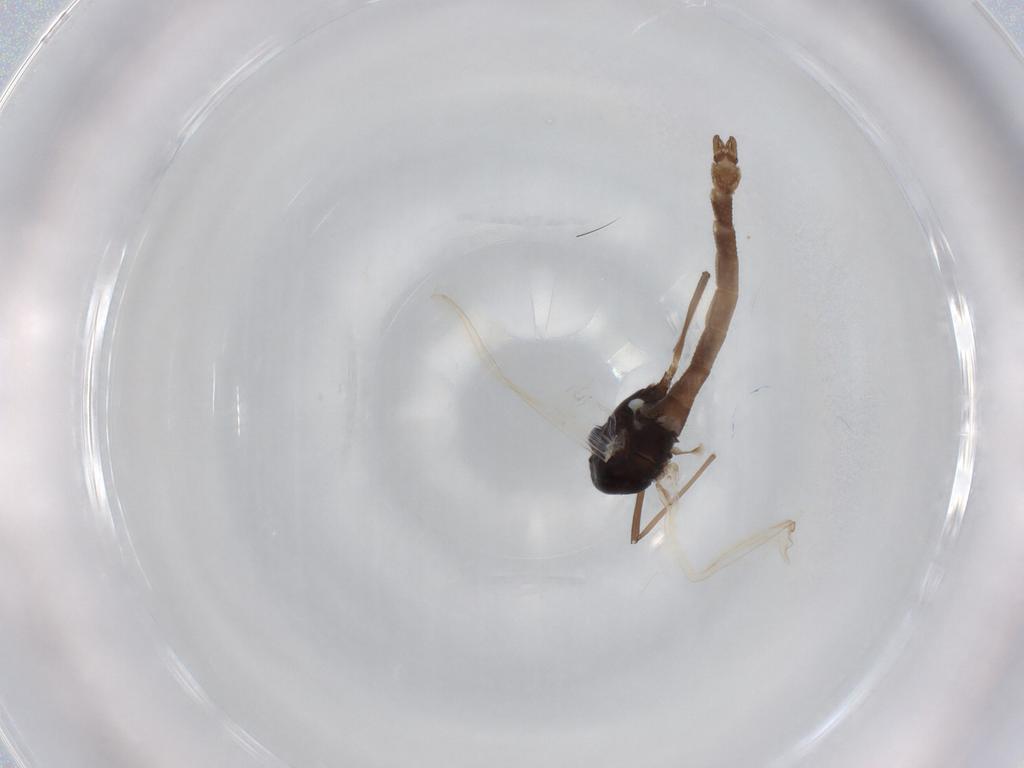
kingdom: Animalia
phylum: Arthropoda
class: Insecta
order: Diptera
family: Chironomidae
